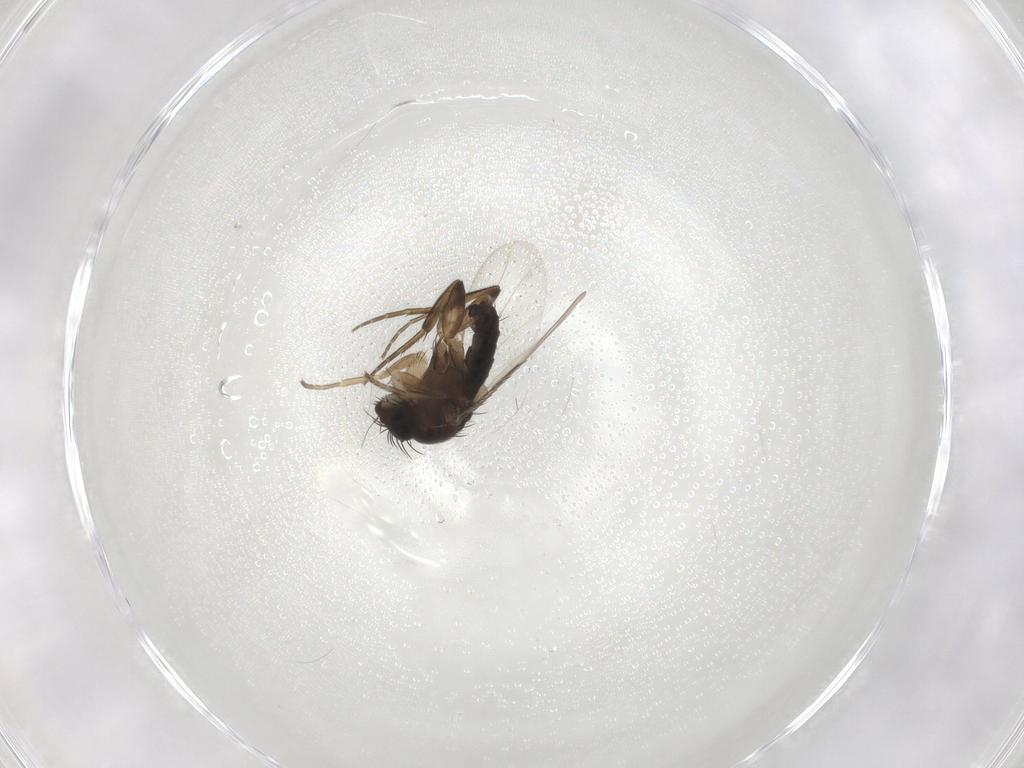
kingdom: Animalia
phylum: Arthropoda
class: Insecta
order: Diptera
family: Phoridae
